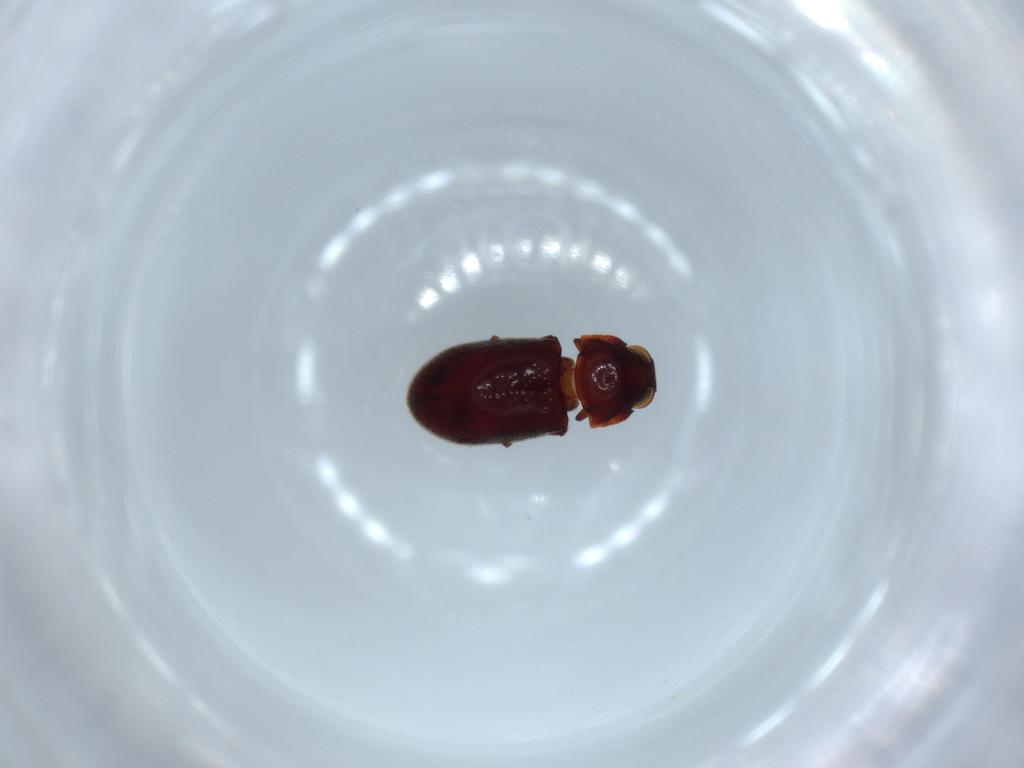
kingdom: Animalia
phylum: Arthropoda
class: Insecta
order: Coleoptera
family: Anobiidae
